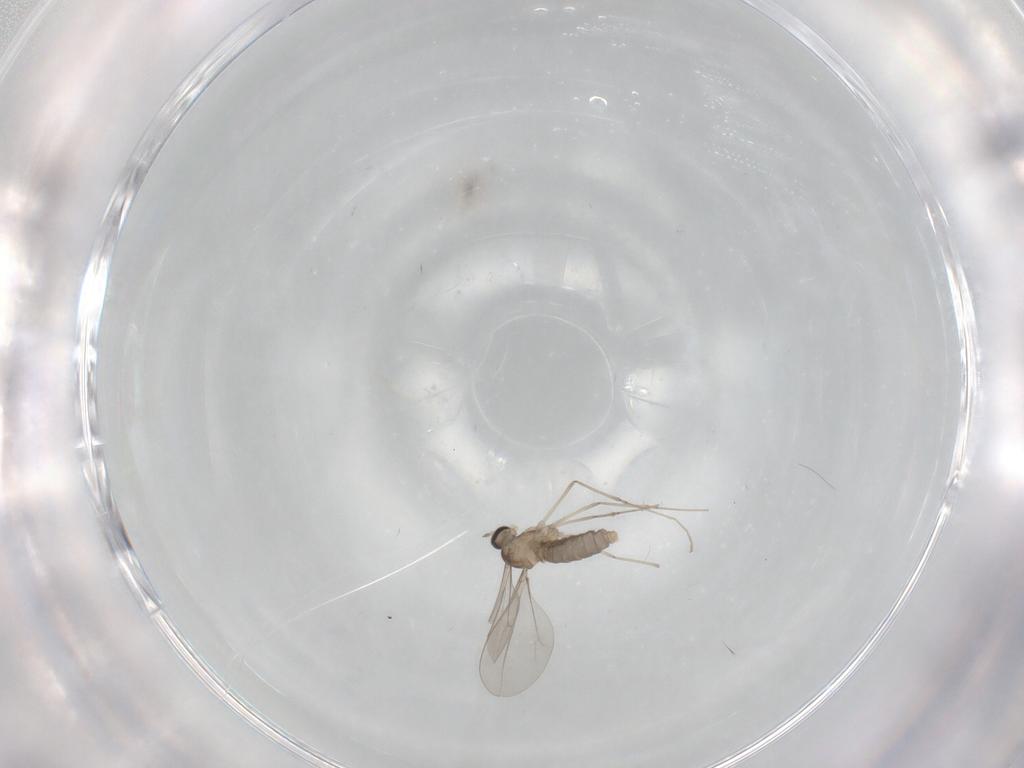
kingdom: Animalia
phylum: Arthropoda
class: Insecta
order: Diptera
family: Cecidomyiidae
